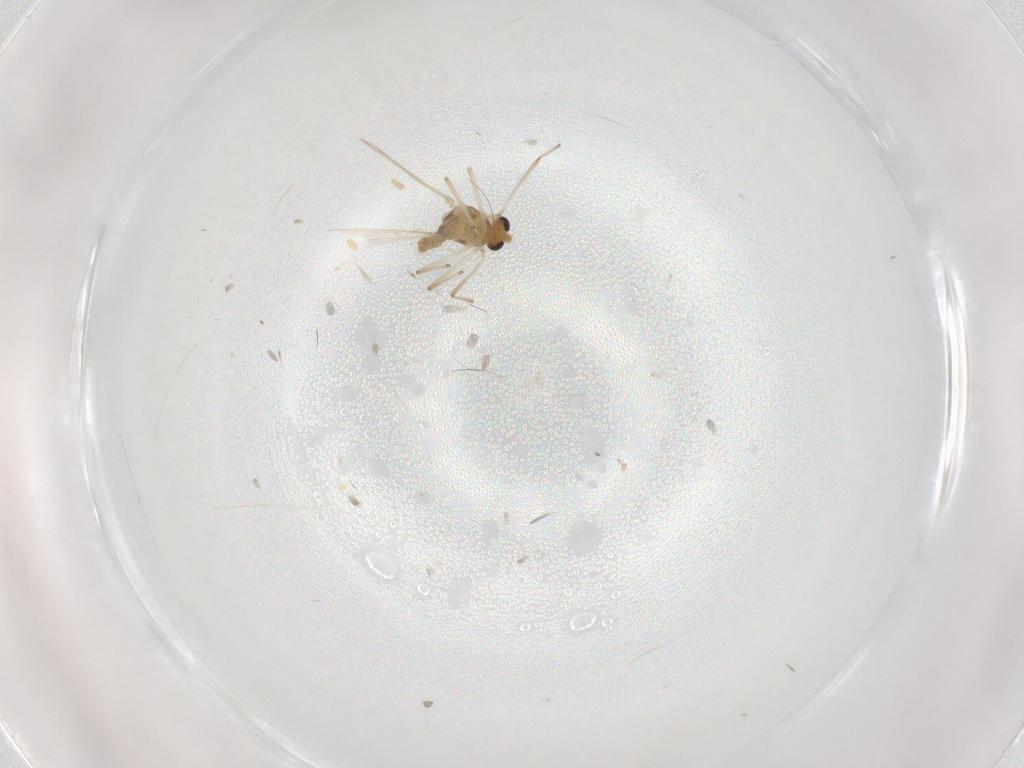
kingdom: Animalia
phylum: Arthropoda
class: Insecta
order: Diptera
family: Chironomidae
